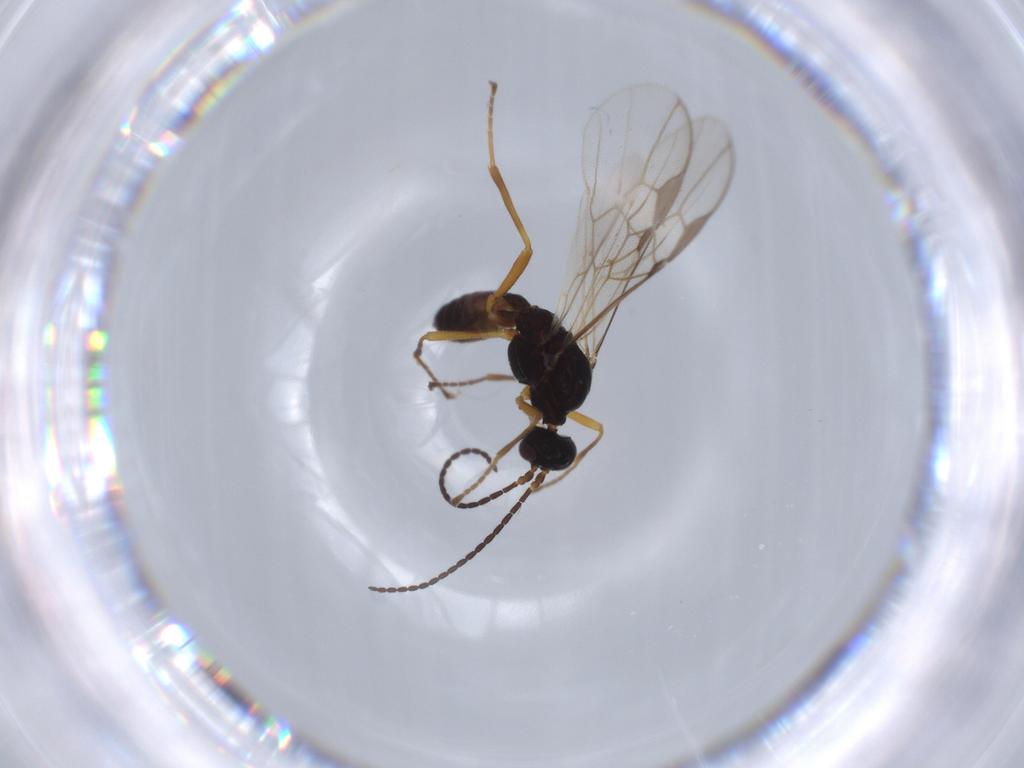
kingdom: Animalia
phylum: Arthropoda
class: Insecta
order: Hymenoptera
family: Braconidae
